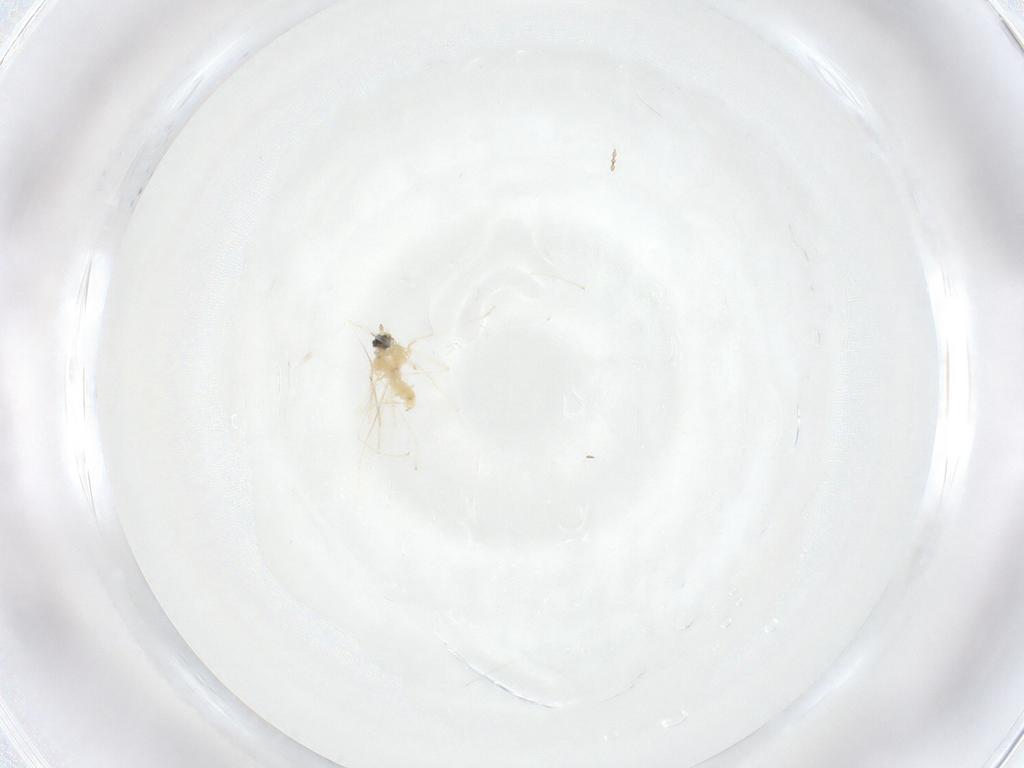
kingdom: Animalia
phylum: Arthropoda
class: Insecta
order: Diptera
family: Cecidomyiidae
